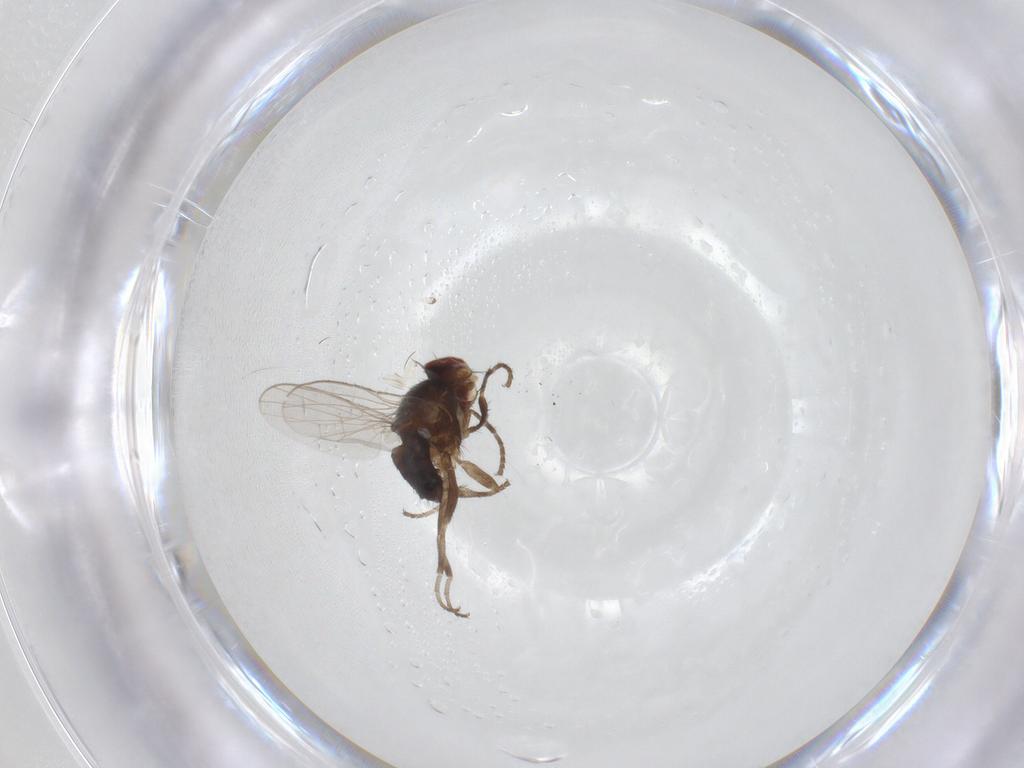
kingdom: Animalia
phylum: Arthropoda
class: Insecta
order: Diptera
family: Heleomyzidae
